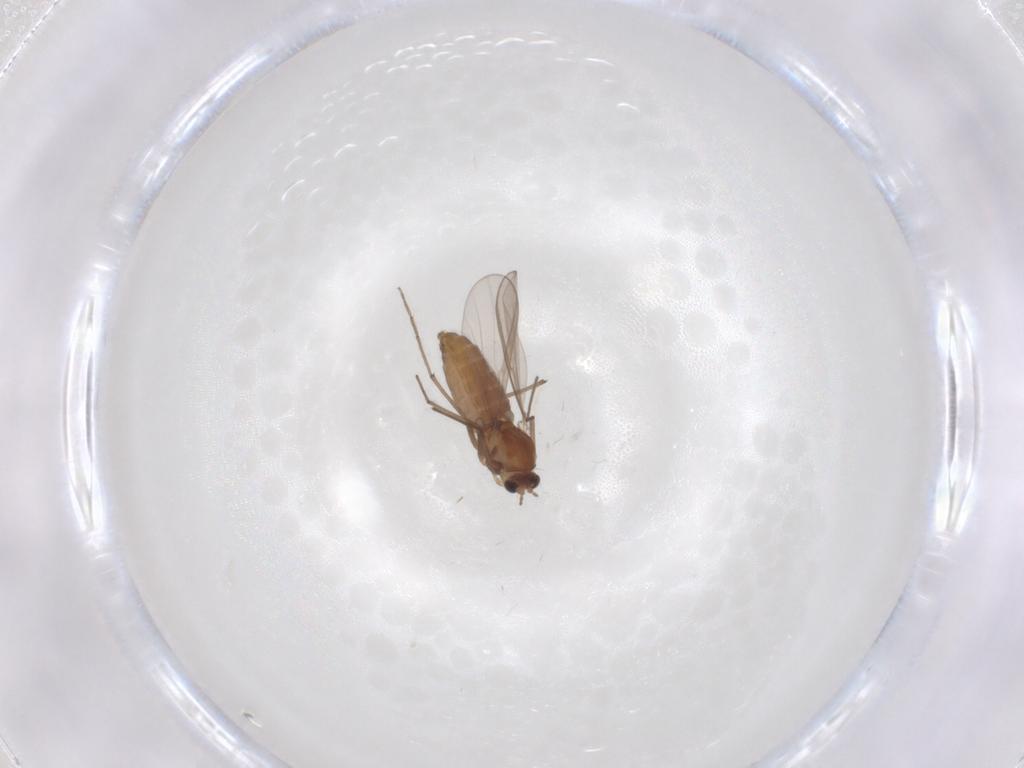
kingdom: Animalia
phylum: Arthropoda
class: Insecta
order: Diptera
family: Chironomidae
